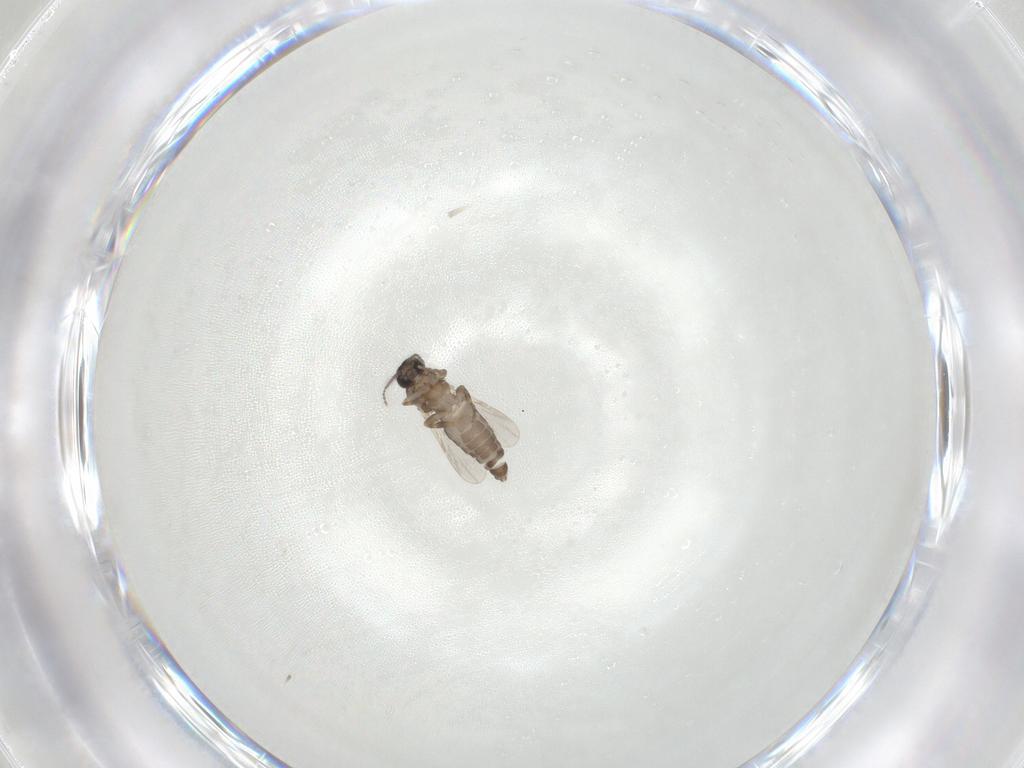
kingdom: Animalia
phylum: Arthropoda
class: Insecta
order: Diptera
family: Ceratopogonidae
